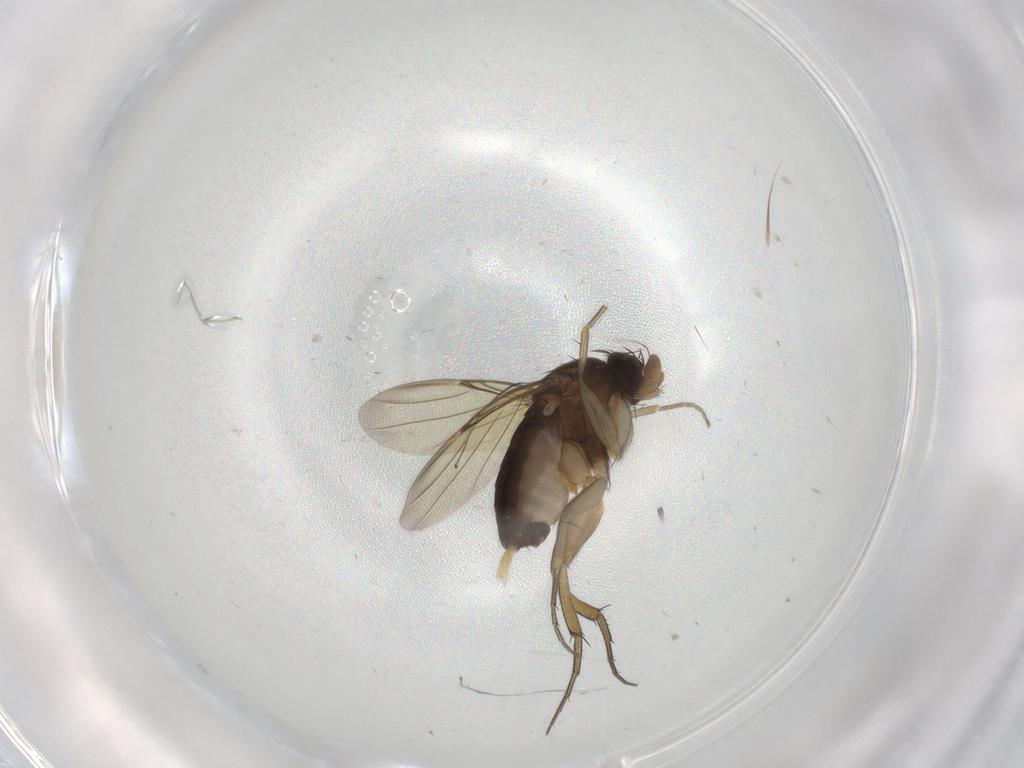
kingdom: Animalia
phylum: Arthropoda
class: Insecta
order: Diptera
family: Phoridae
